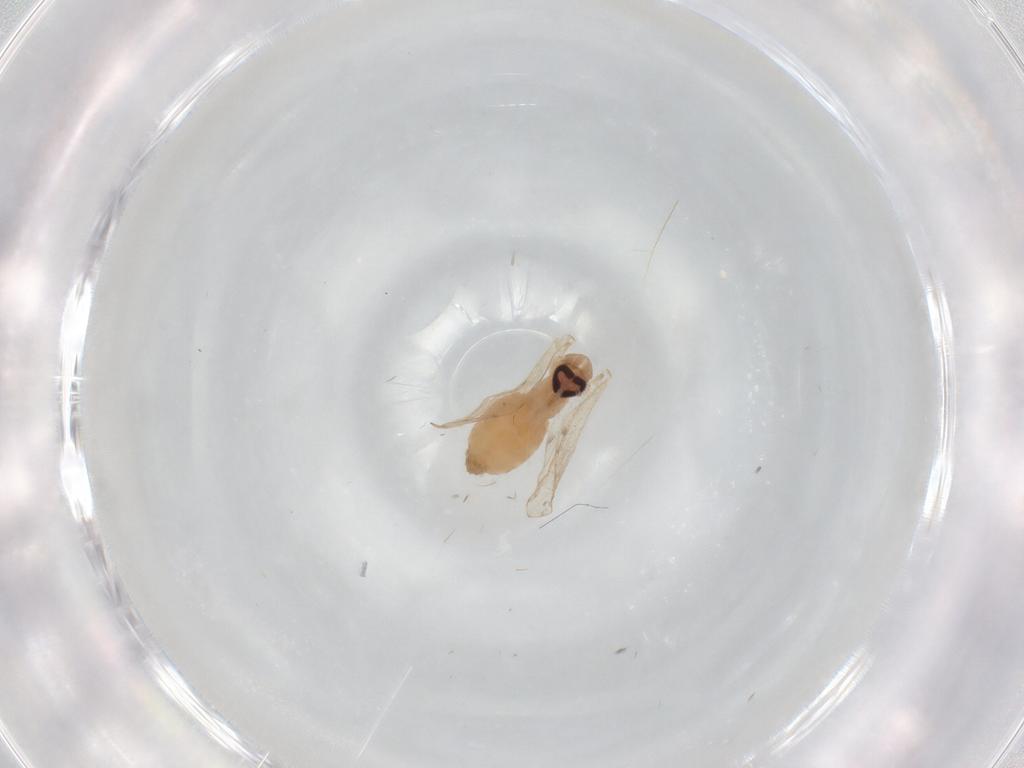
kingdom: Animalia
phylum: Arthropoda
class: Insecta
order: Diptera
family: Psychodidae
